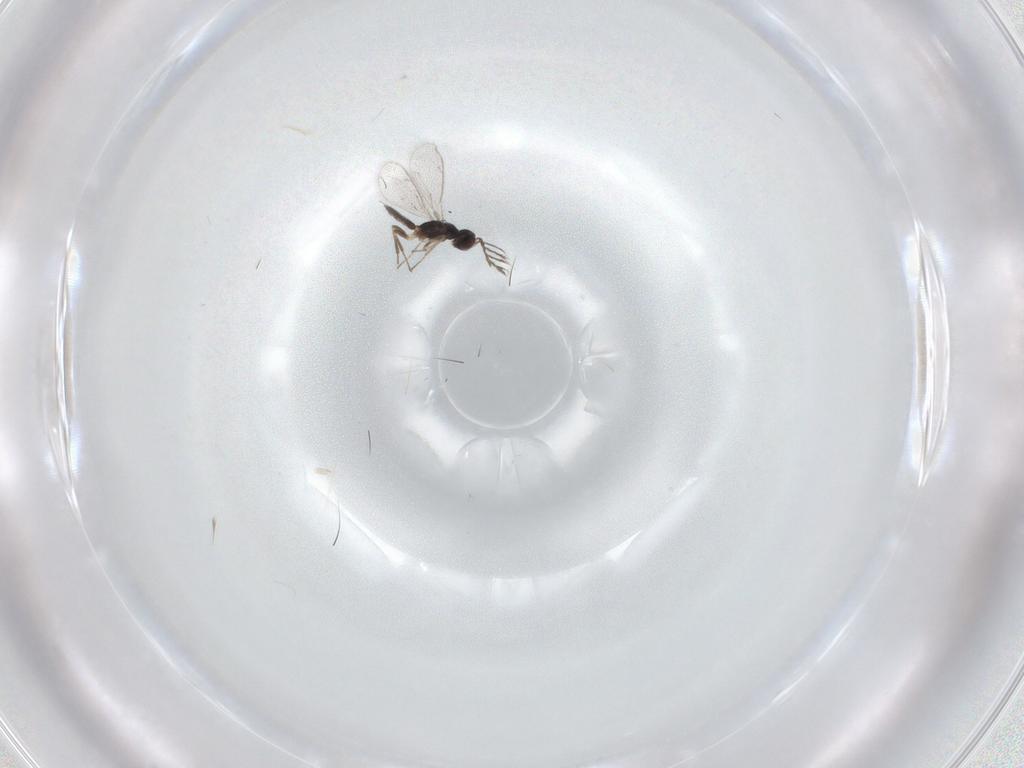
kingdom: Animalia
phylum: Arthropoda
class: Insecta
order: Hymenoptera
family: Eulophidae
